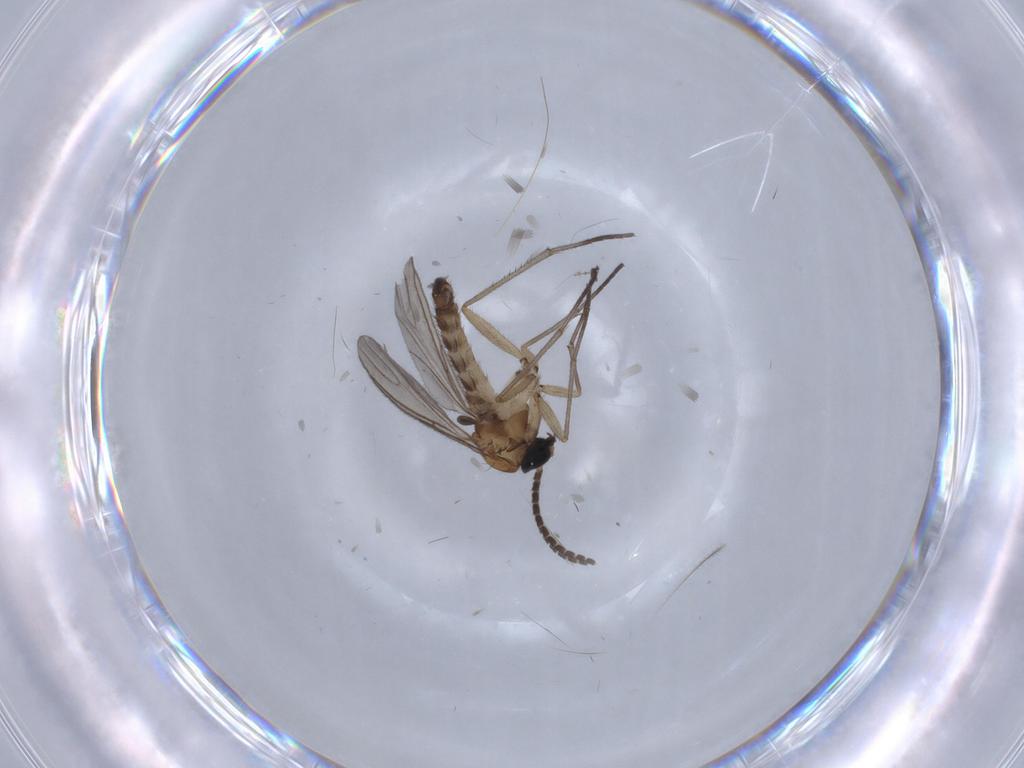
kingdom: Animalia
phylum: Arthropoda
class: Insecta
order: Diptera
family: Sciaridae
